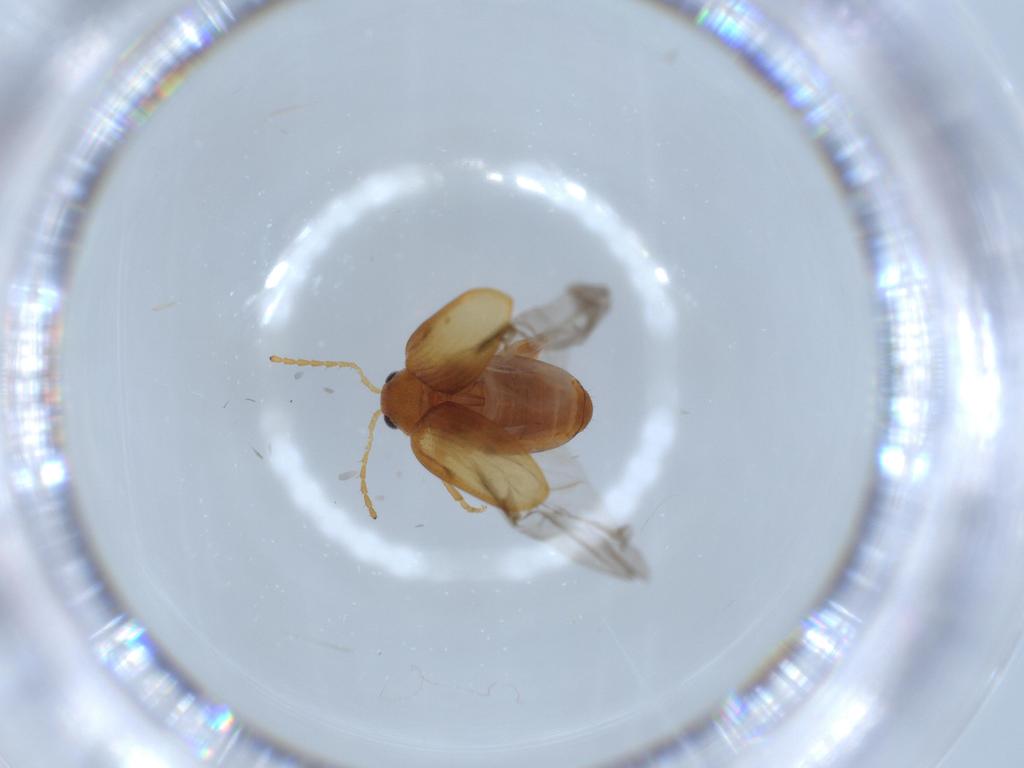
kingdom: Animalia
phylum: Arthropoda
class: Insecta
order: Coleoptera
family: Chrysomelidae
